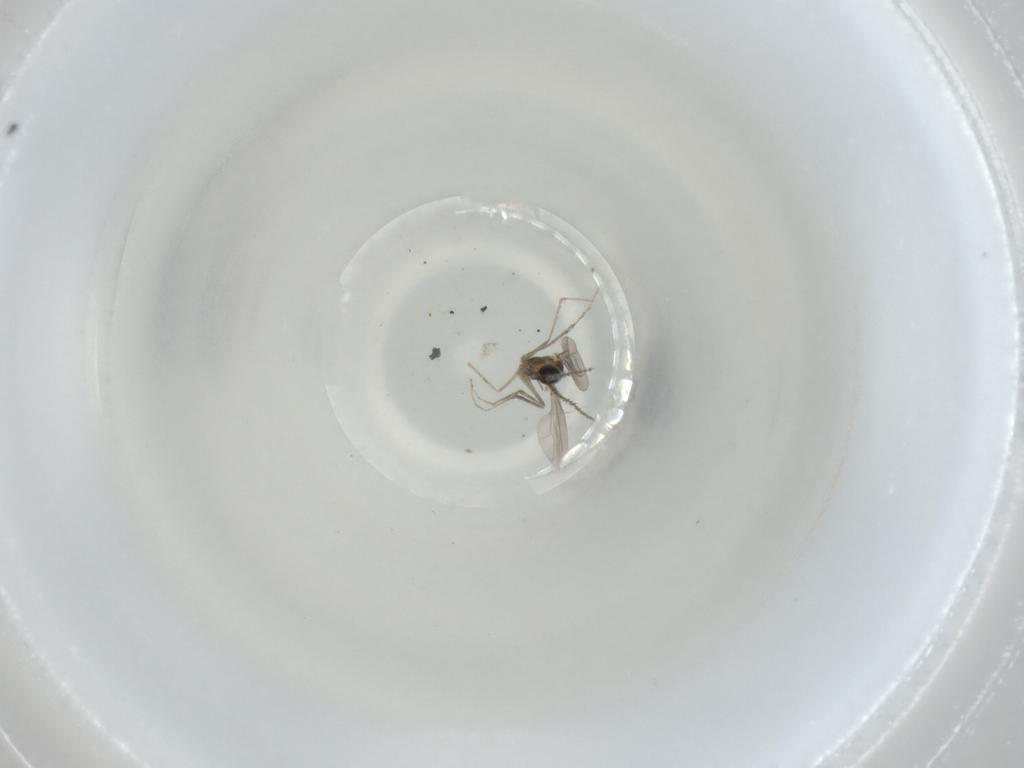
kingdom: Animalia
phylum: Arthropoda
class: Insecta
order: Diptera
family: Cecidomyiidae
